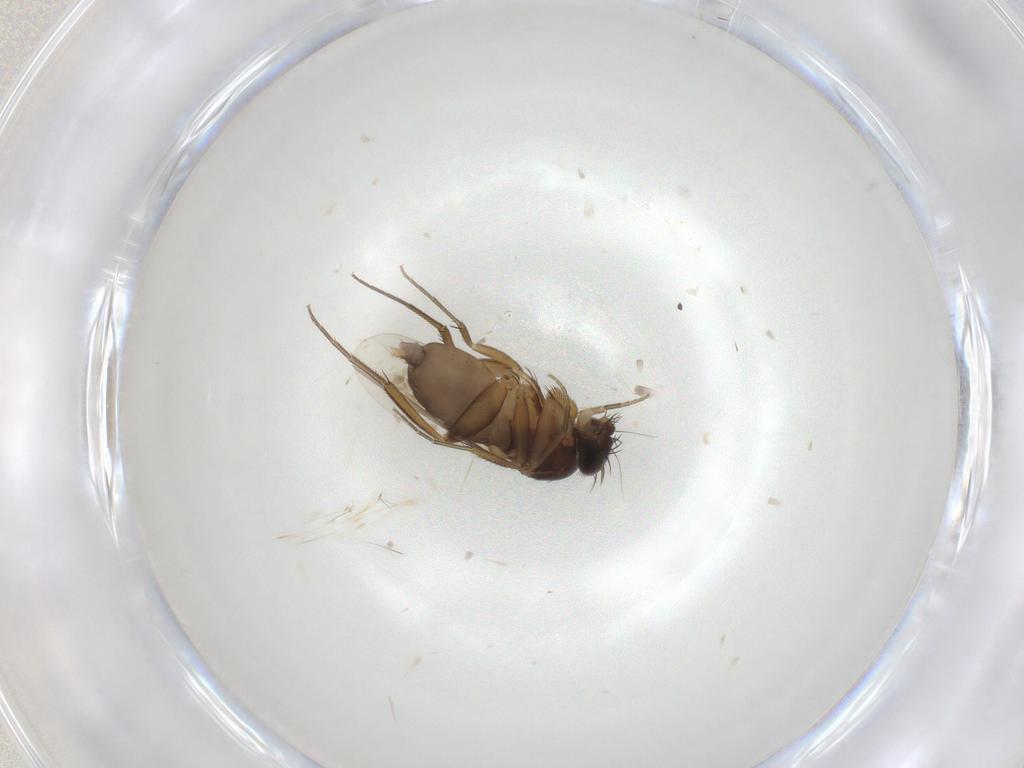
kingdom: Animalia
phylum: Arthropoda
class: Insecta
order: Diptera
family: Phoridae
